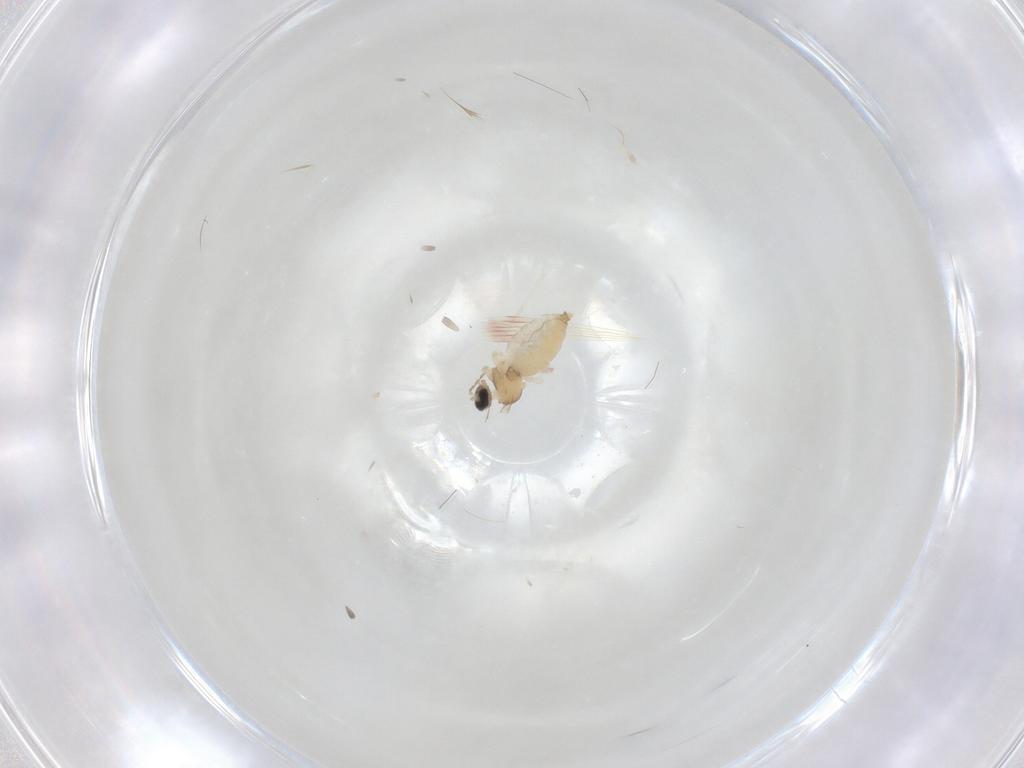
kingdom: Animalia
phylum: Arthropoda
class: Insecta
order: Diptera
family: Cecidomyiidae
